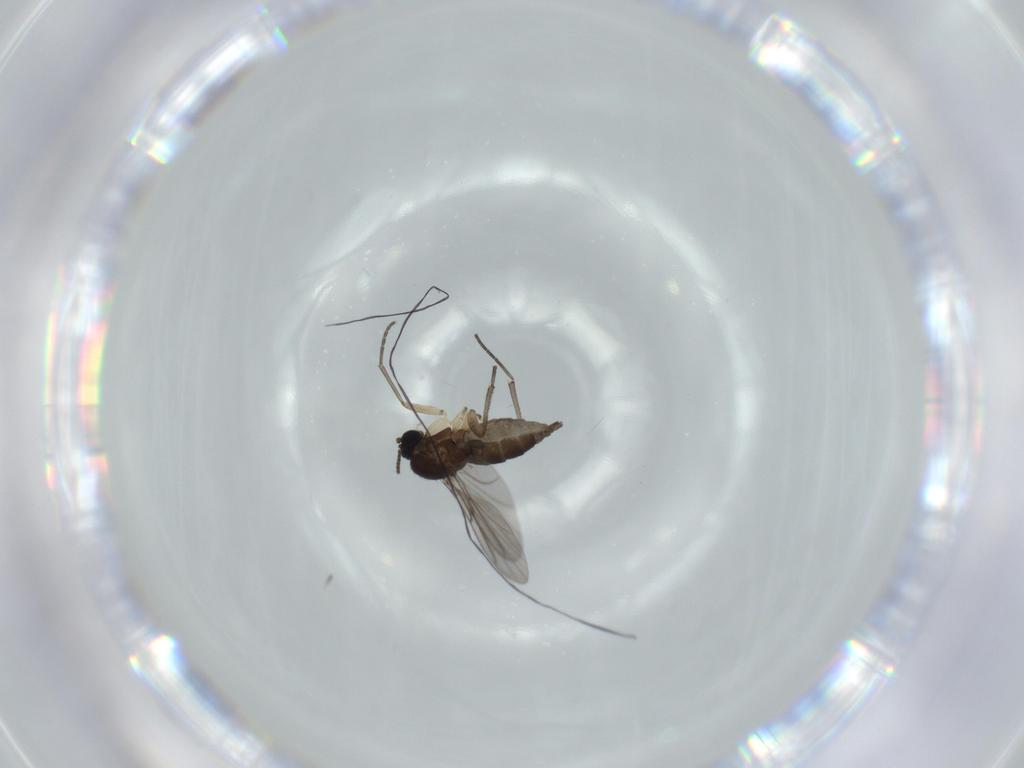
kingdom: Animalia
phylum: Arthropoda
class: Insecta
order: Diptera
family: Sciaridae
